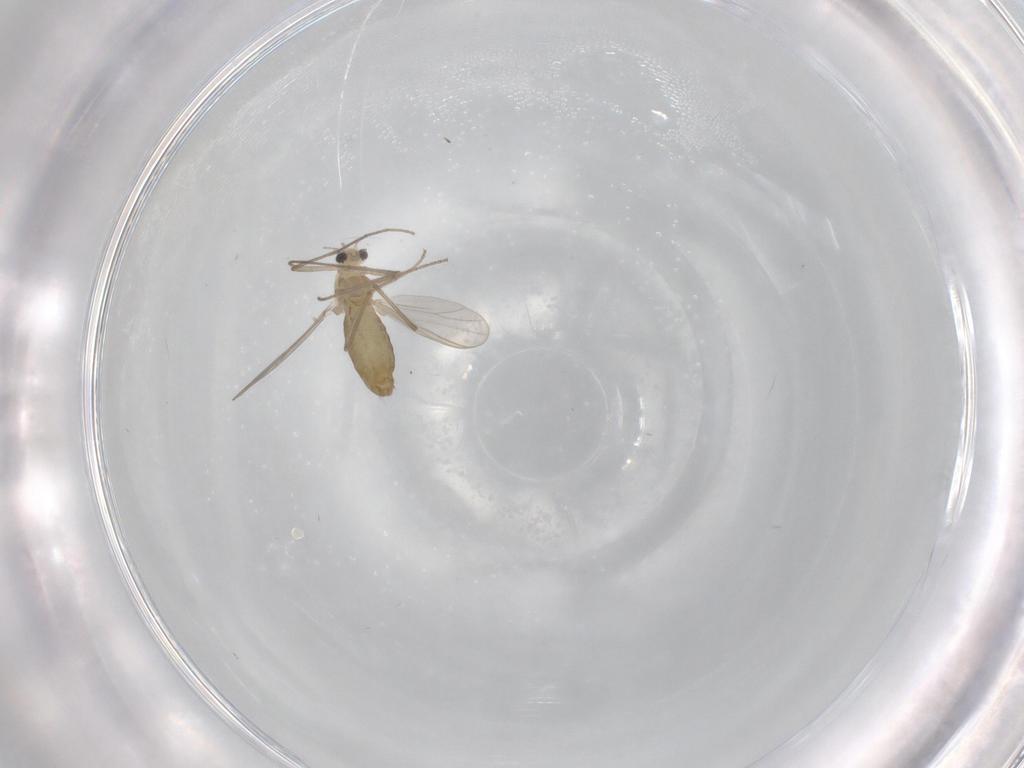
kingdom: Animalia
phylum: Arthropoda
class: Insecta
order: Diptera
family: Chironomidae
